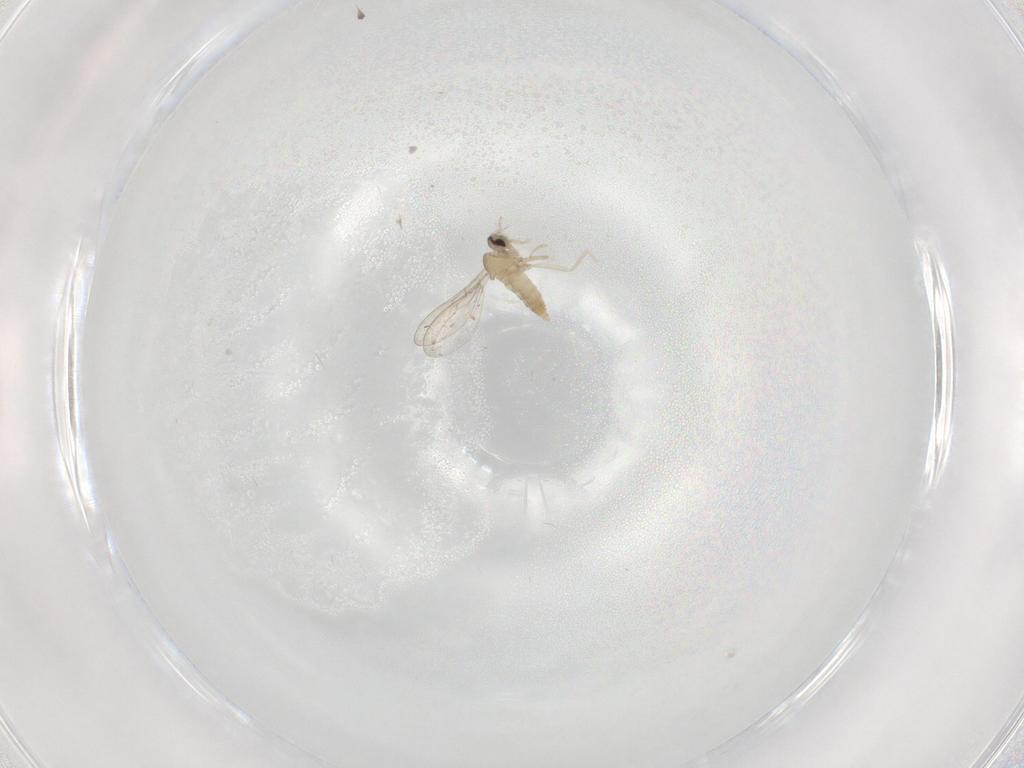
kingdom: Animalia
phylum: Arthropoda
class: Insecta
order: Diptera
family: Cecidomyiidae
